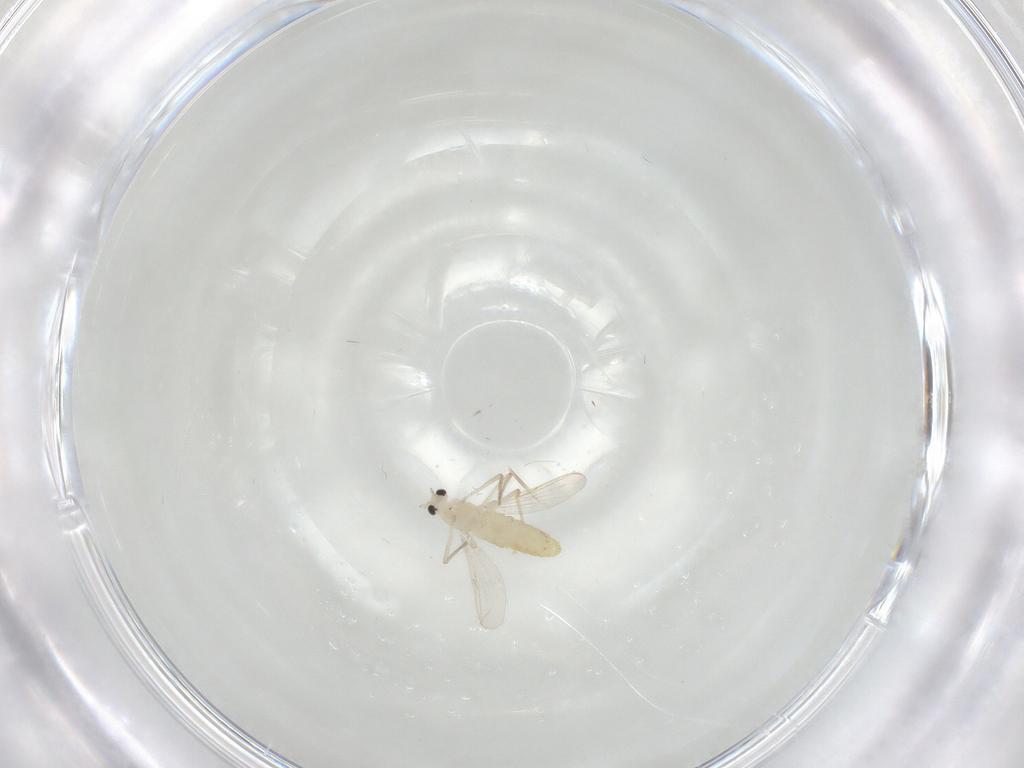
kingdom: Animalia
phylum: Arthropoda
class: Insecta
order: Diptera
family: Chironomidae
